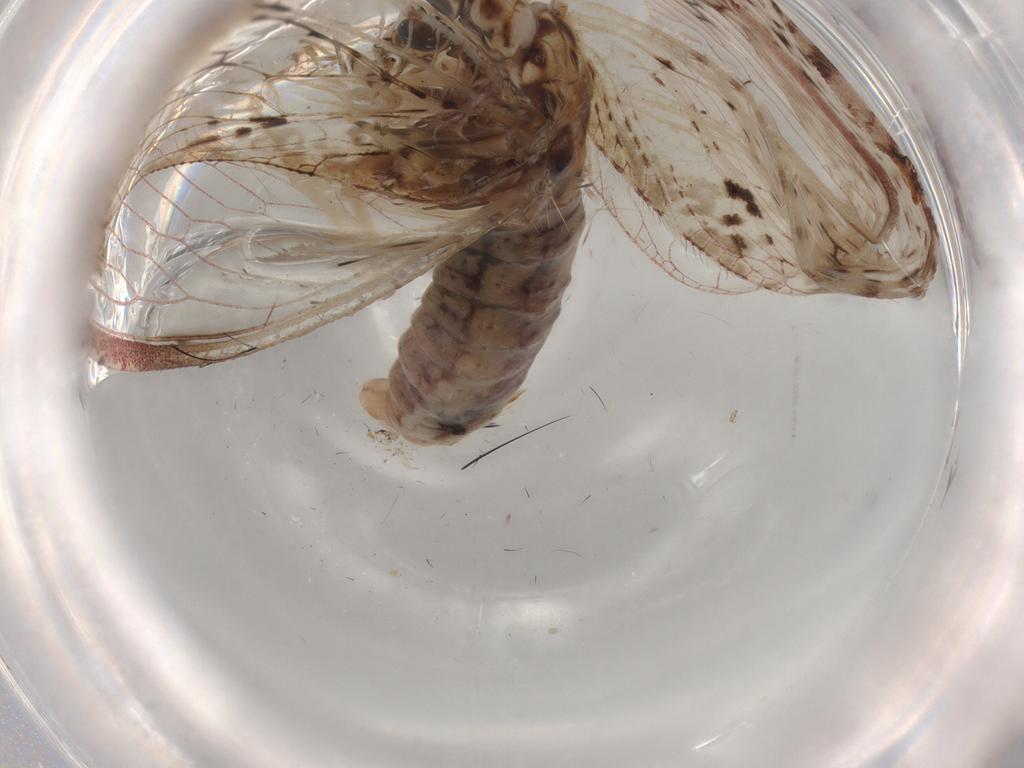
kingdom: Animalia
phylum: Arthropoda
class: Insecta
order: Neuroptera
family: Hemerobiidae
